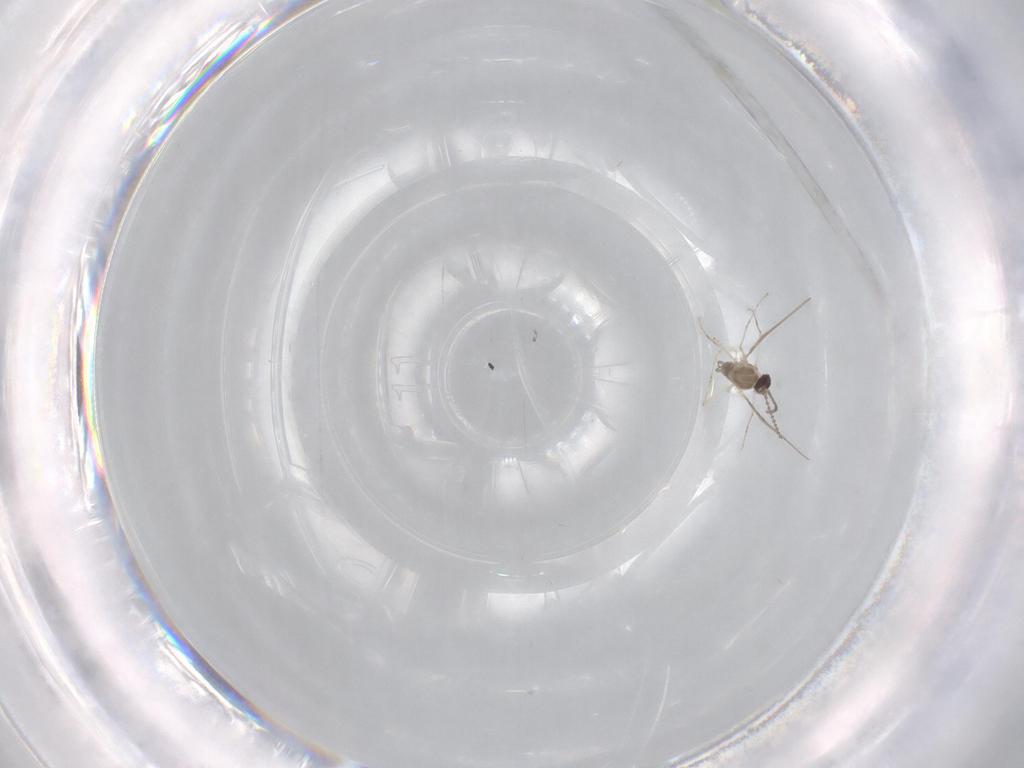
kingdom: Animalia
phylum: Arthropoda
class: Insecta
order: Diptera
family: Cecidomyiidae
